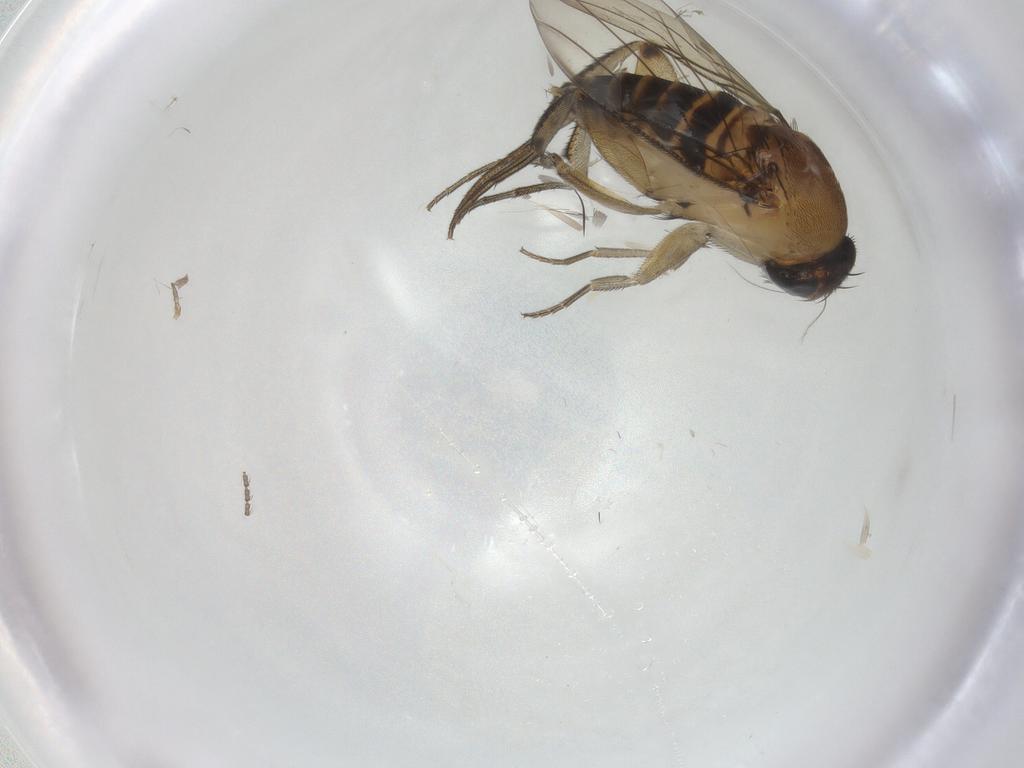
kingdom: Animalia
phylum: Arthropoda
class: Insecta
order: Diptera
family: Phoridae
